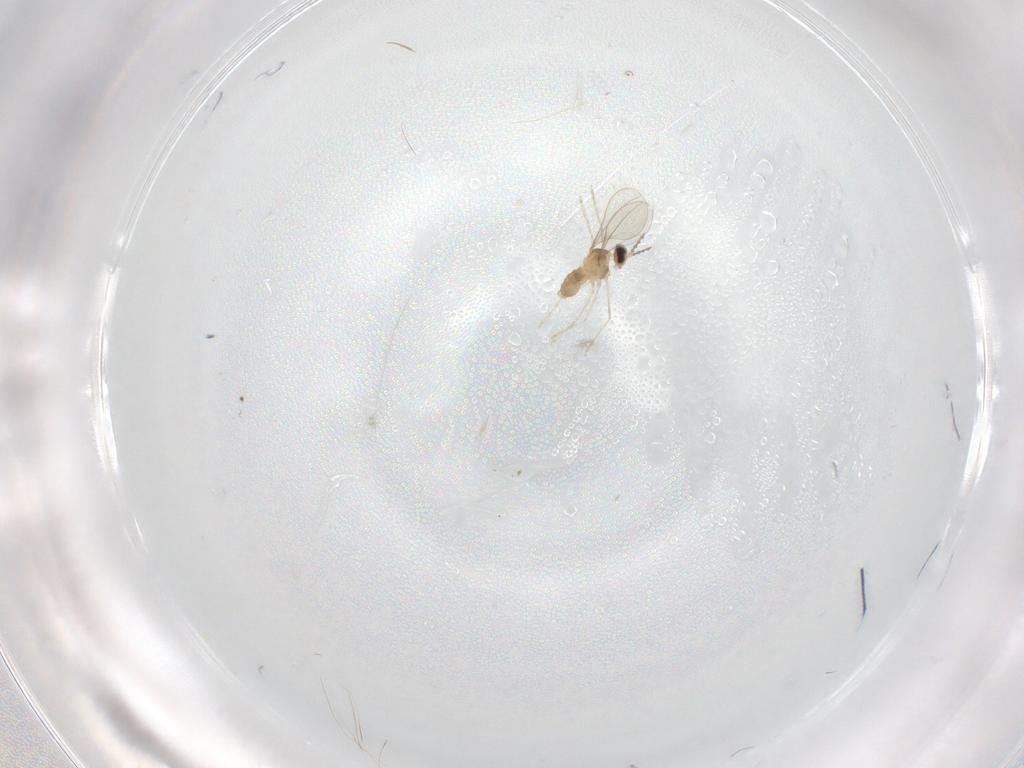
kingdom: Animalia
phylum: Arthropoda
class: Insecta
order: Diptera
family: Cecidomyiidae
